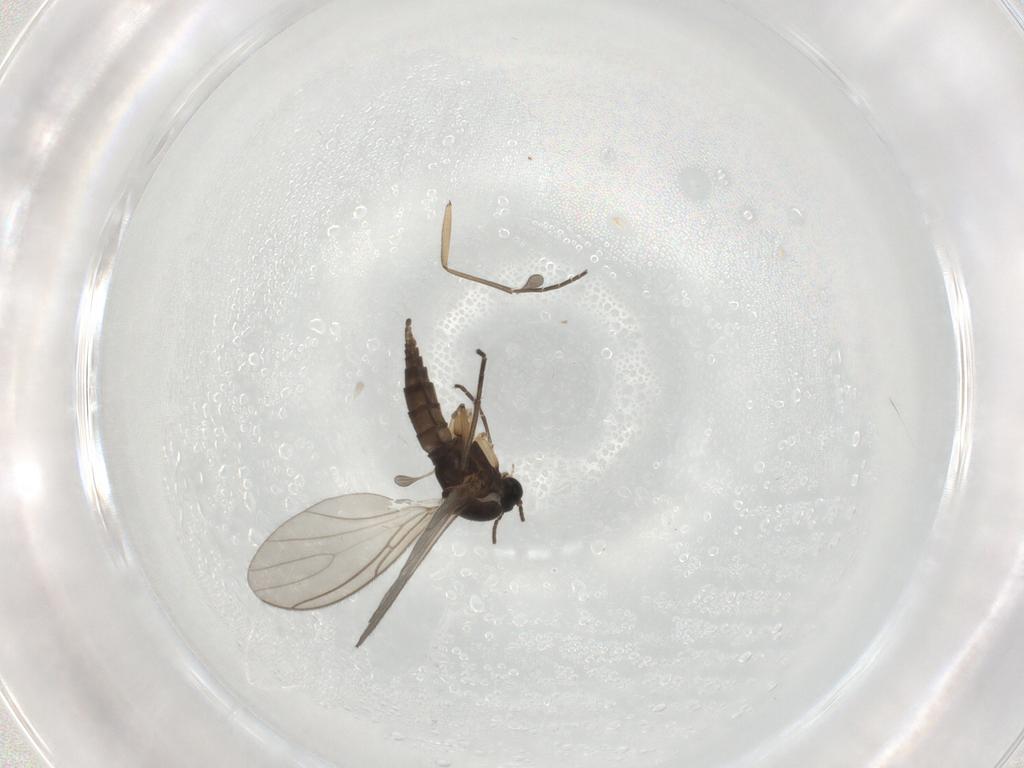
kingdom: Animalia
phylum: Arthropoda
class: Insecta
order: Diptera
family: Sciaridae
